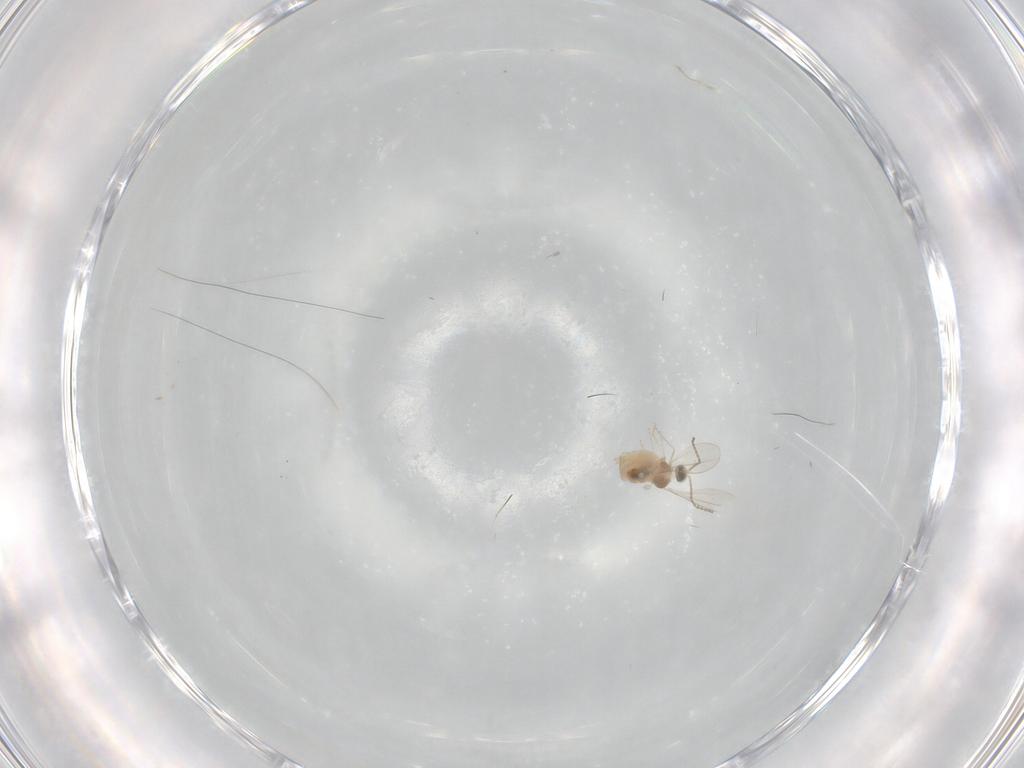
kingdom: Animalia
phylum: Arthropoda
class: Insecta
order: Diptera
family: Cecidomyiidae
